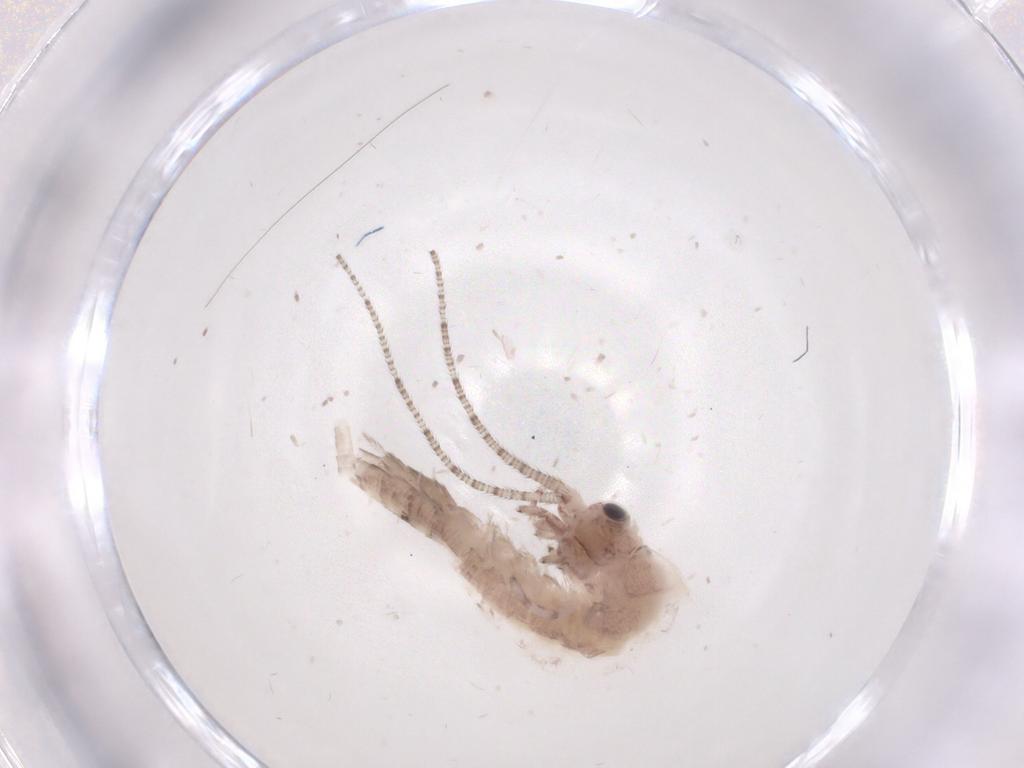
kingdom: Animalia
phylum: Arthropoda
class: Insecta
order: Archaeognatha
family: Machilidae
